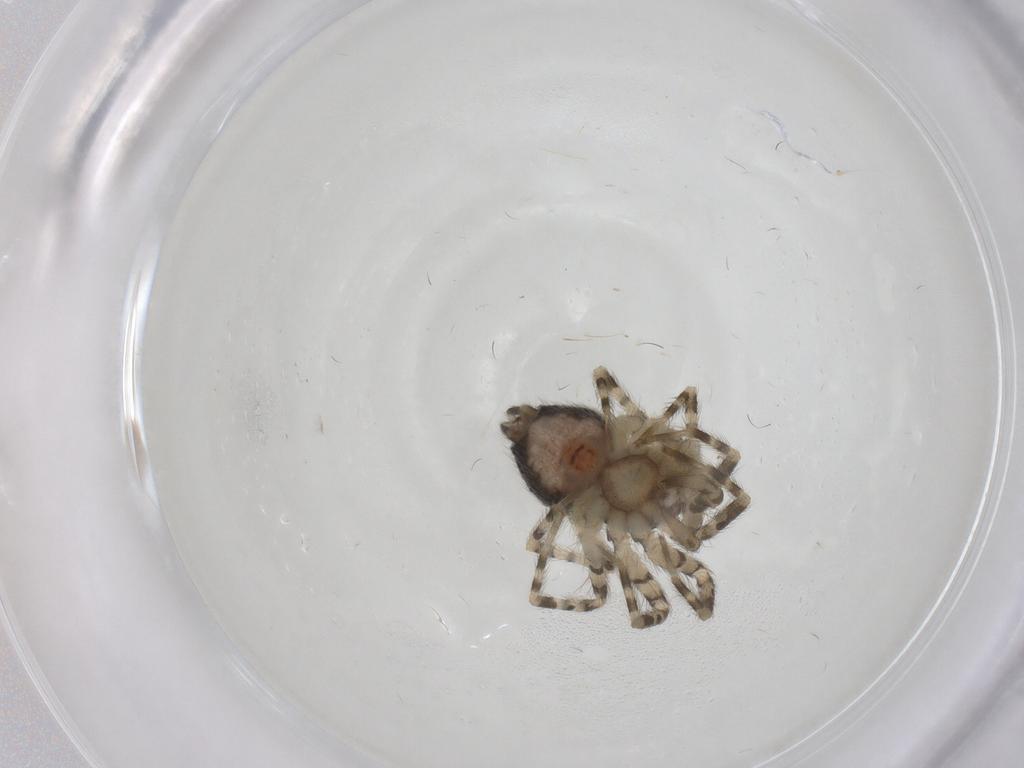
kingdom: Animalia
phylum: Arthropoda
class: Arachnida
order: Araneae
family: Oecobiidae
